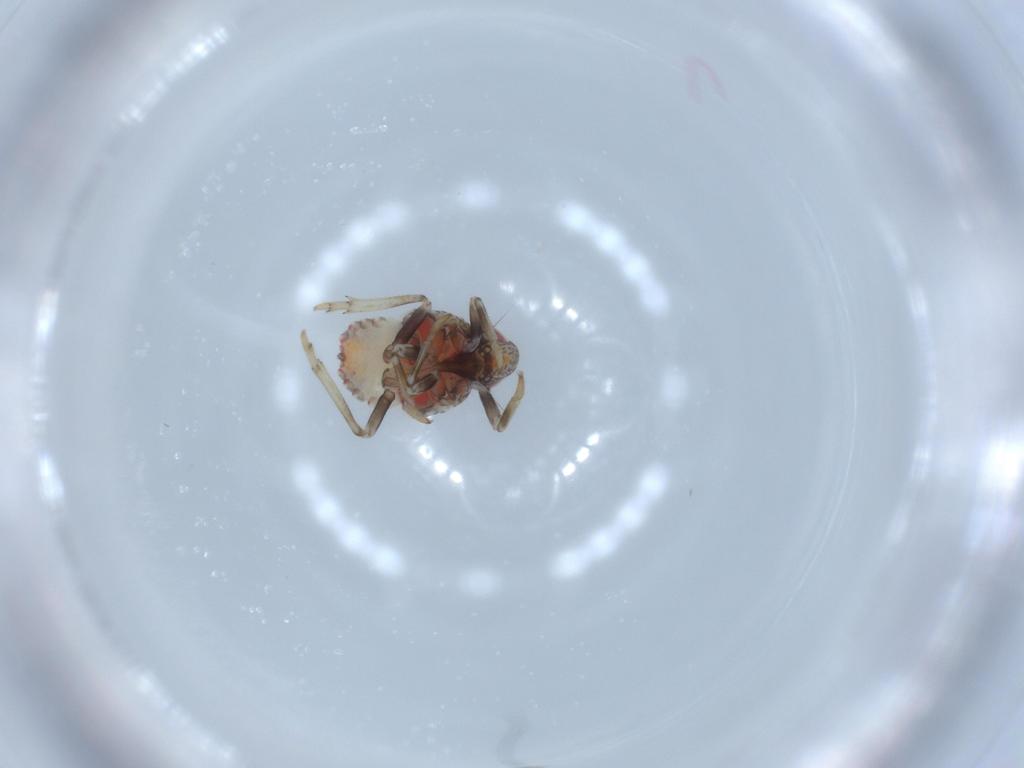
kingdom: Animalia
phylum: Arthropoda
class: Insecta
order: Hemiptera
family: Issidae
